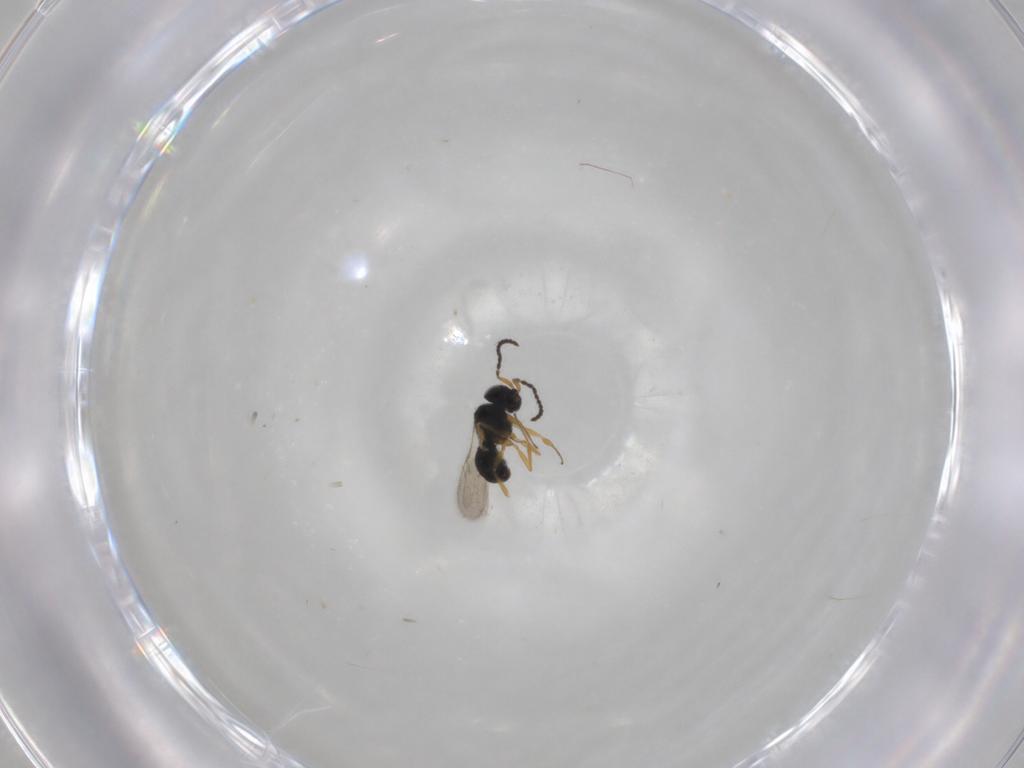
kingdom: Animalia
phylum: Arthropoda
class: Insecta
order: Hymenoptera
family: Scelionidae
